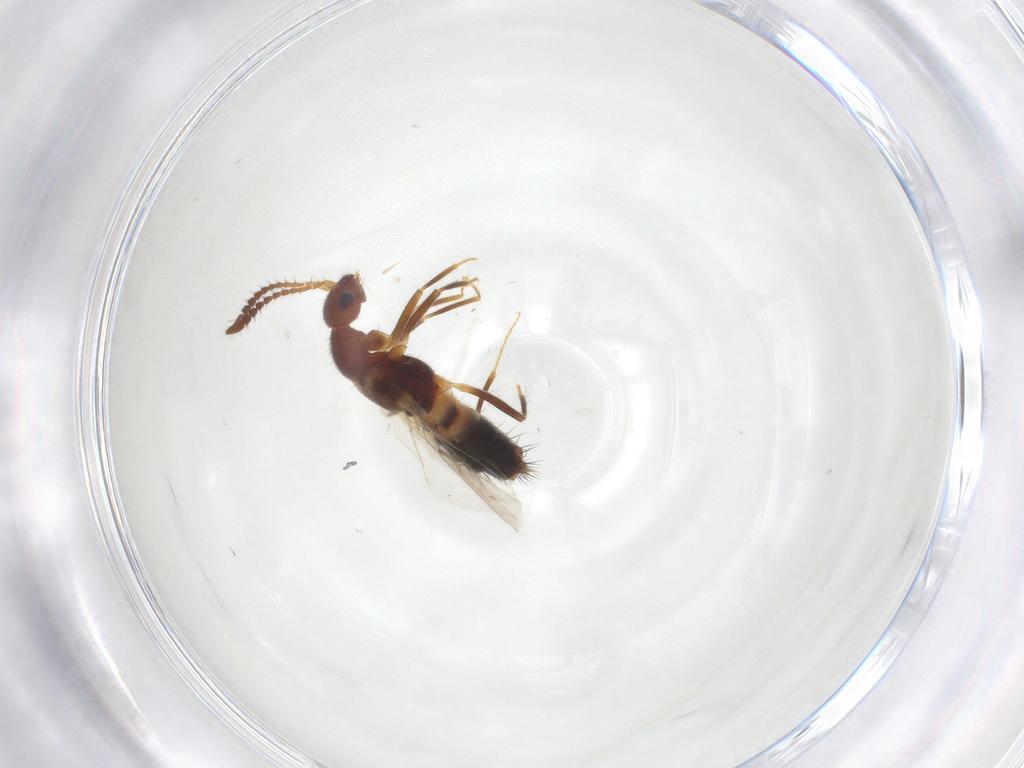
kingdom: Animalia
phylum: Arthropoda
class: Insecta
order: Coleoptera
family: Staphylinidae
